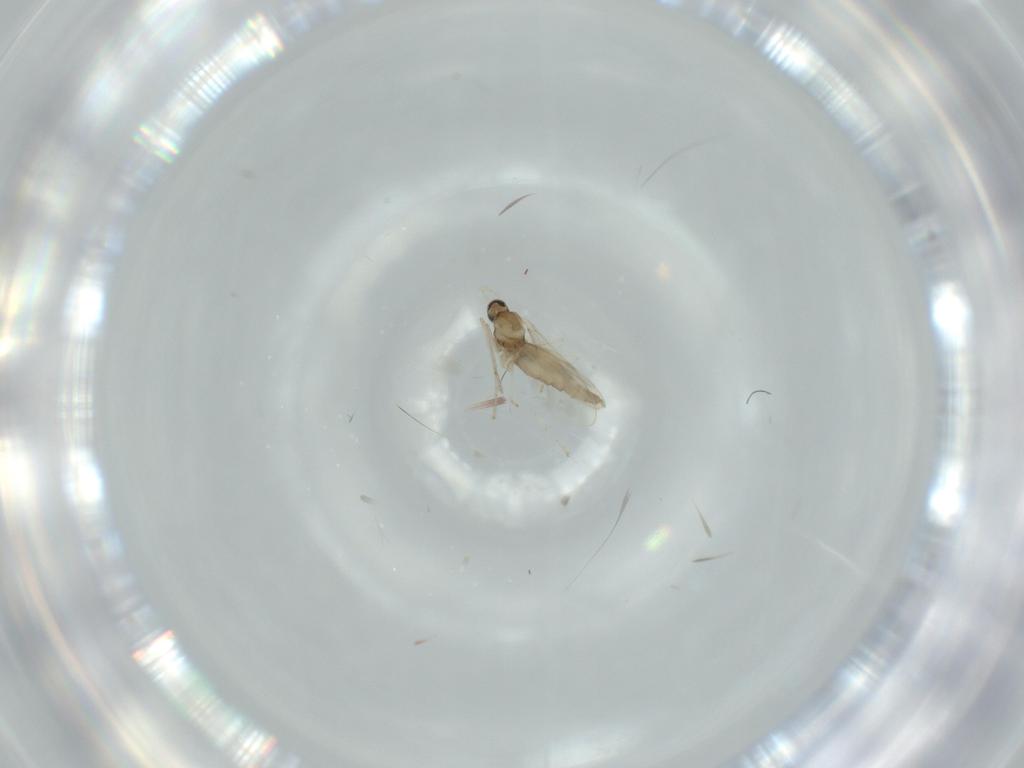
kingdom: Animalia
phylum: Arthropoda
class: Insecta
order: Diptera
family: Cecidomyiidae
